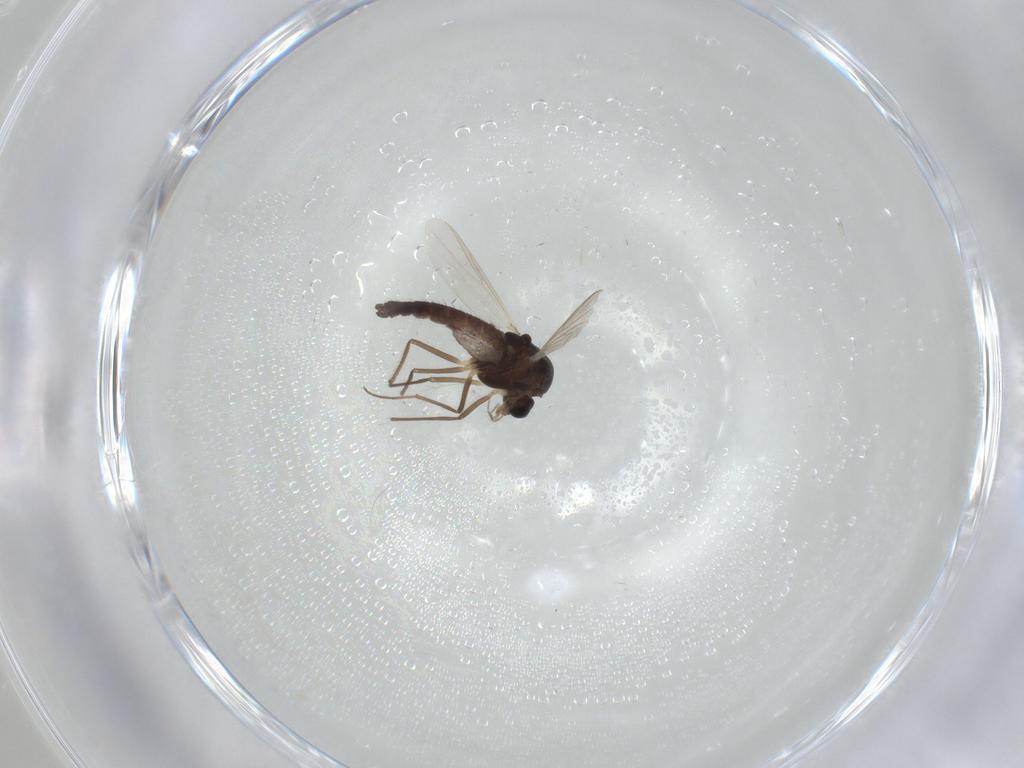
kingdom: Animalia
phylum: Arthropoda
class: Insecta
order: Diptera
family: Chironomidae
